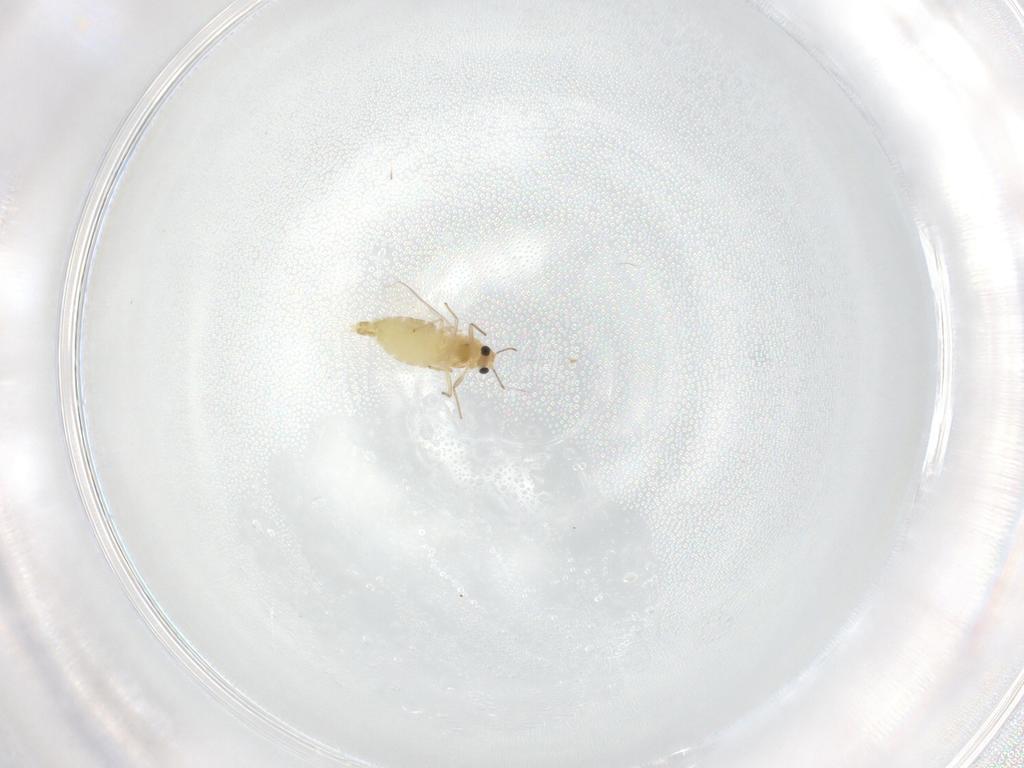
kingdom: Animalia
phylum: Arthropoda
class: Insecta
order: Diptera
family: Chironomidae
